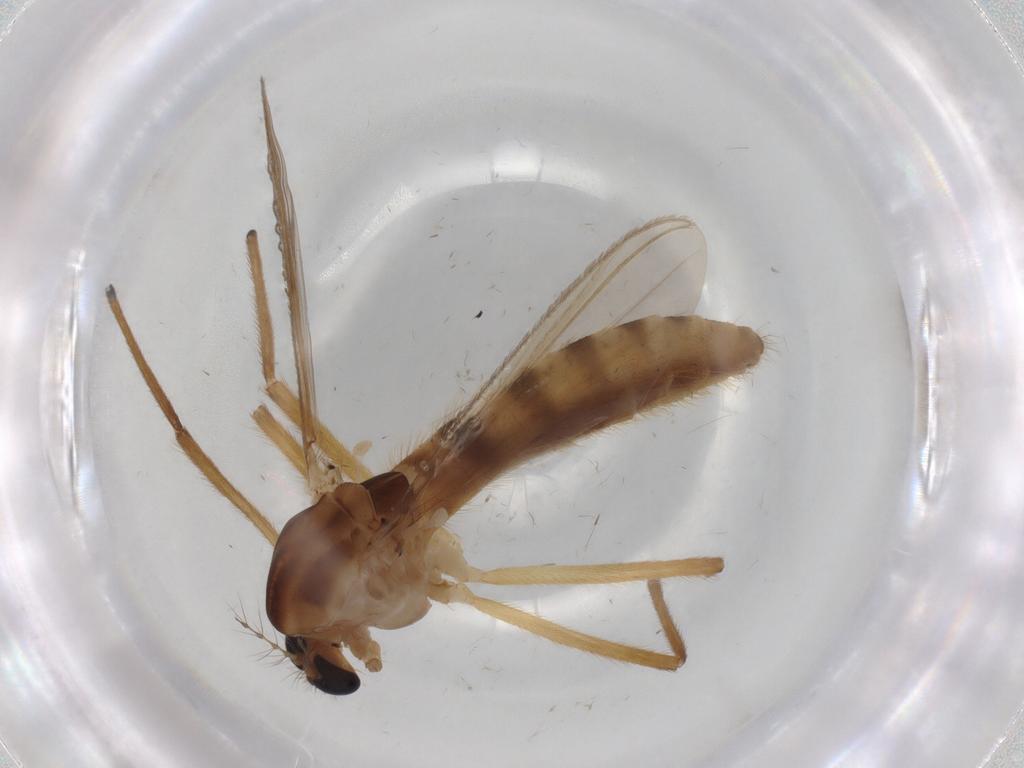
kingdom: Animalia
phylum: Arthropoda
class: Insecta
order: Diptera
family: Chironomidae
